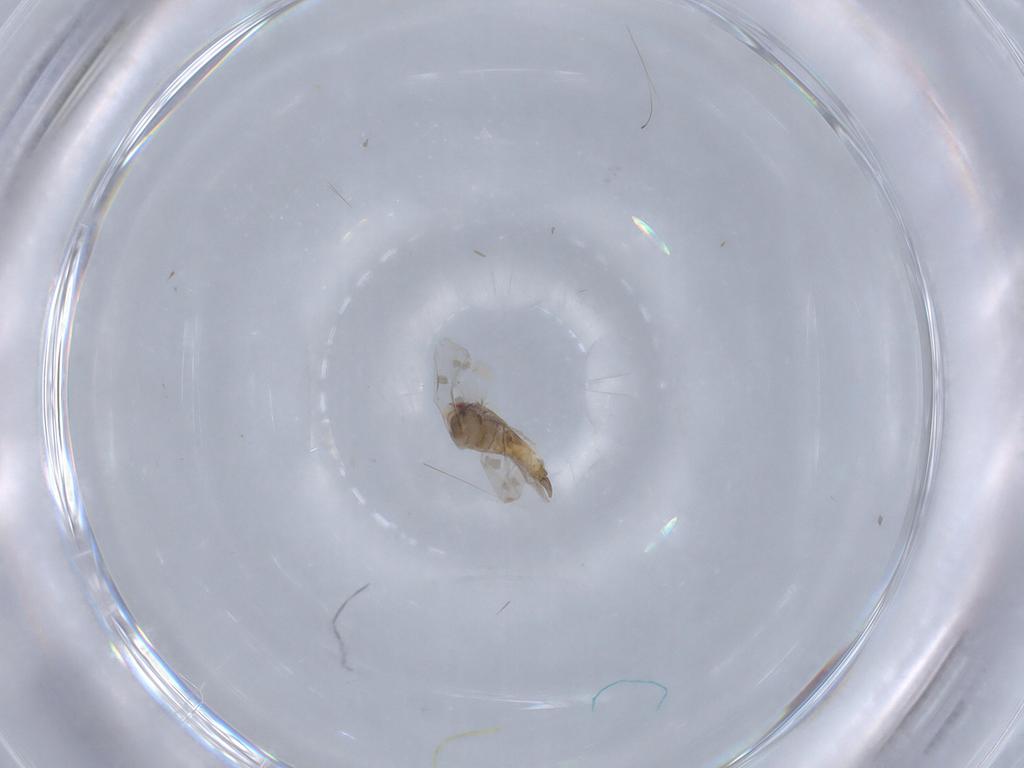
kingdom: Animalia
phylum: Arthropoda
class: Insecta
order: Hemiptera
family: Aleyrodidae
